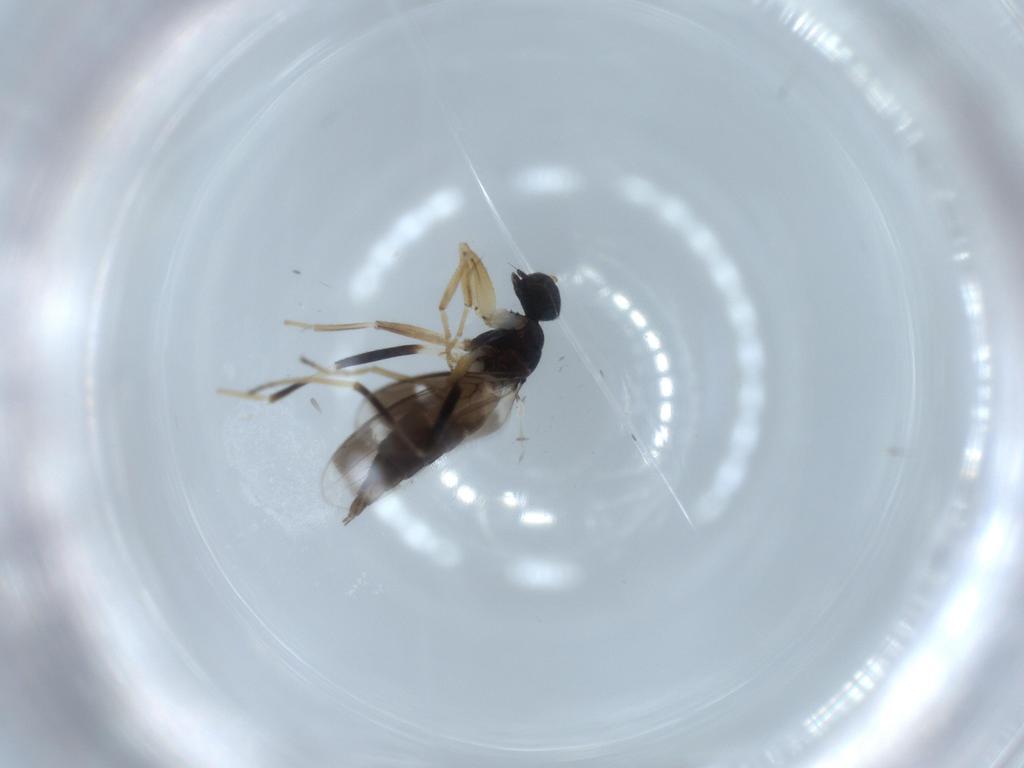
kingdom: Animalia
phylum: Arthropoda
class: Insecta
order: Diptera
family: Hybotidae
